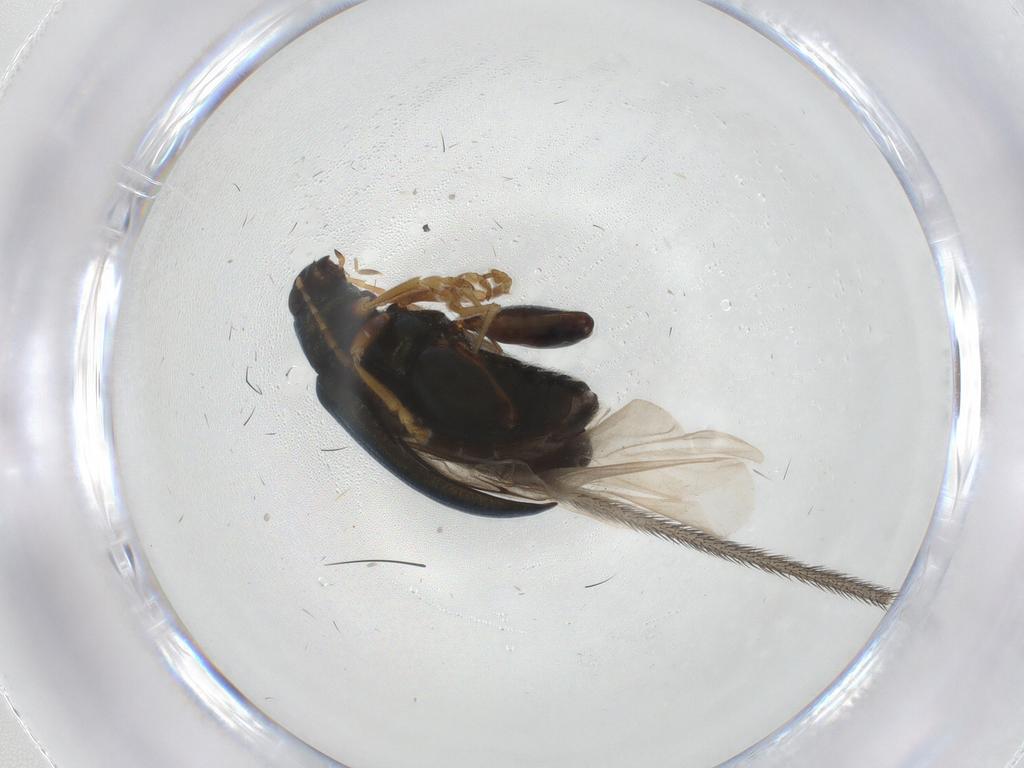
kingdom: Animalia
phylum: Arthropoda
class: Insecta
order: Coleoptera
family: Chrysomelidae
